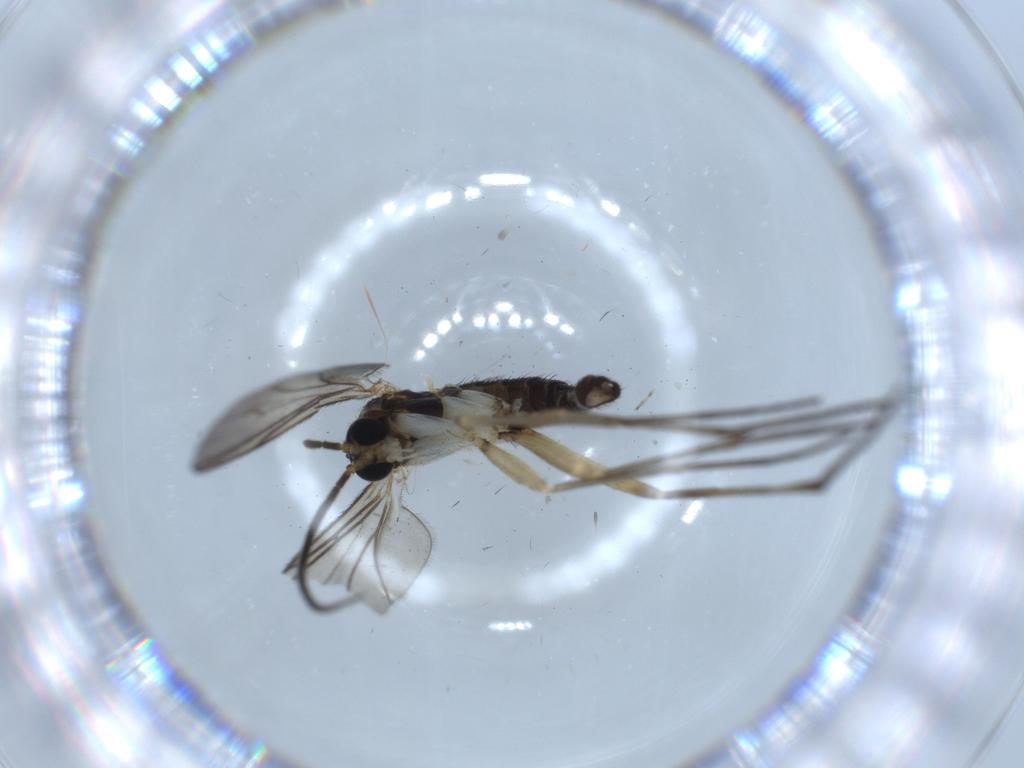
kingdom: Animalia
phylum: Arthropoda
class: Insecta
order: Diptera
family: Sciaridae
